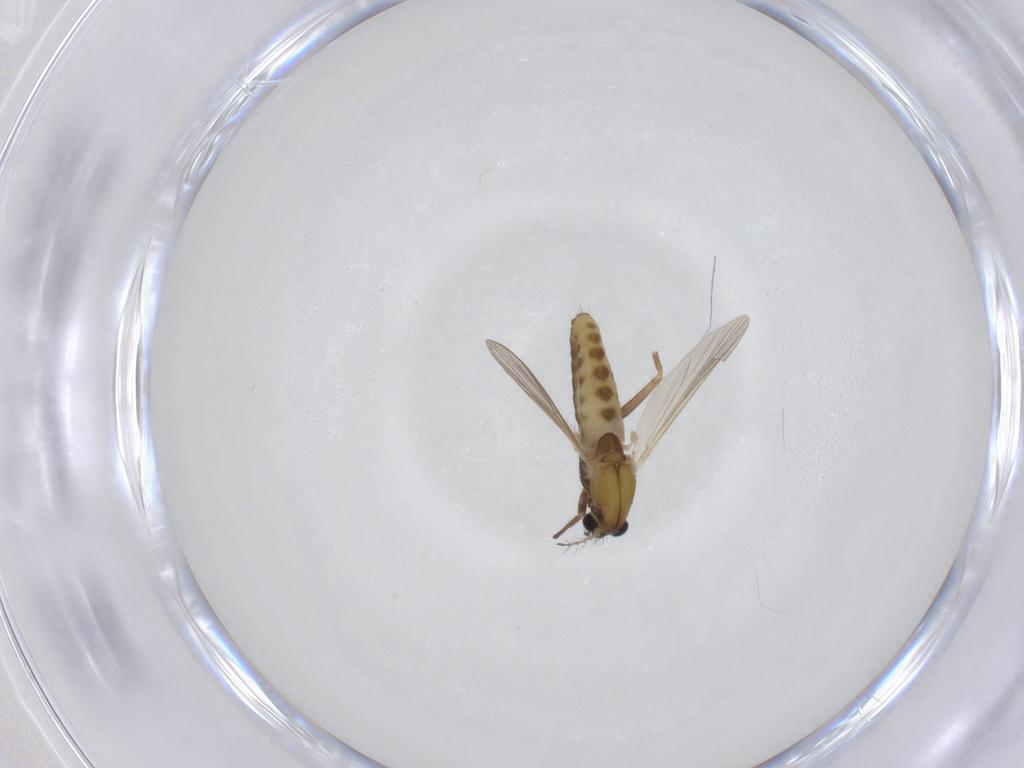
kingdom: Animalia
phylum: Arthropoda
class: Insecta
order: Diptera
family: Chironomidae
